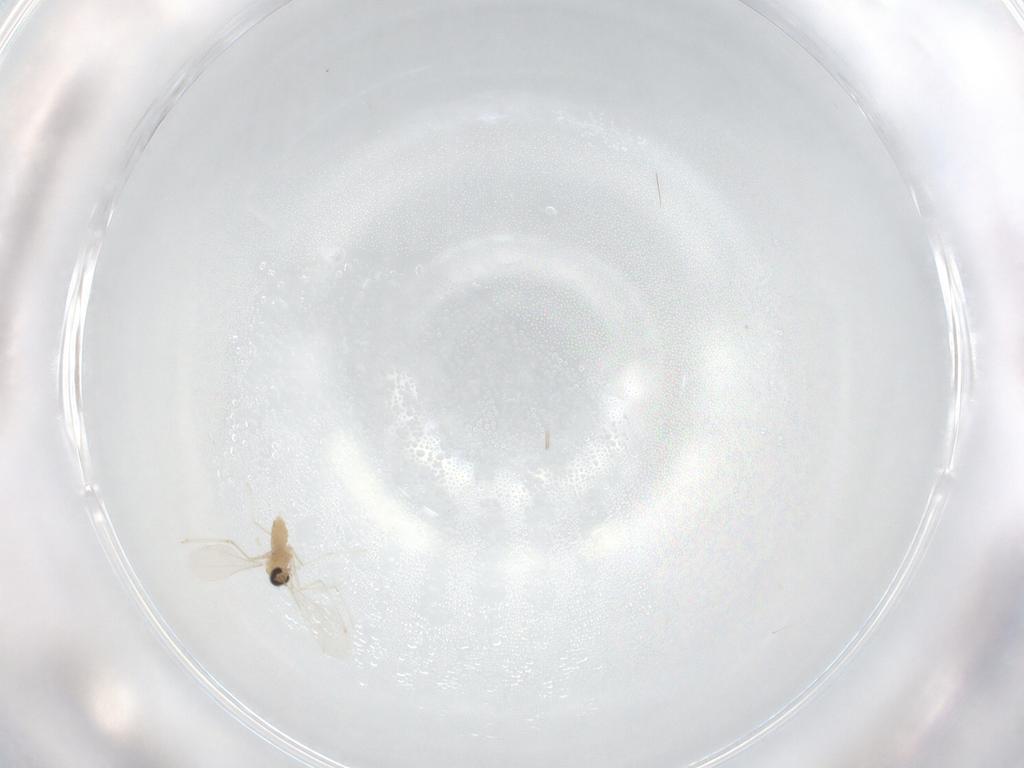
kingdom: Animalia
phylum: Arthropoda
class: Insecta
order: Diptera
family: Cecidomyiidae
